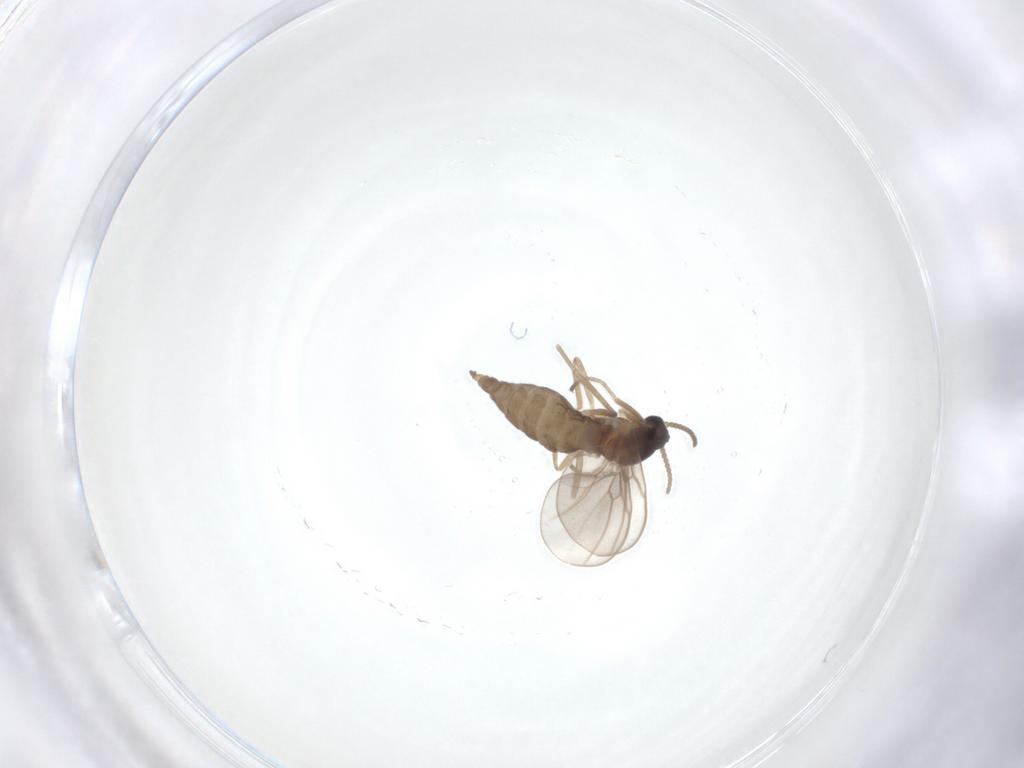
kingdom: Animalia
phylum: Arthropoda
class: Insecta
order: Diptera
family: Cecidomyiidae
